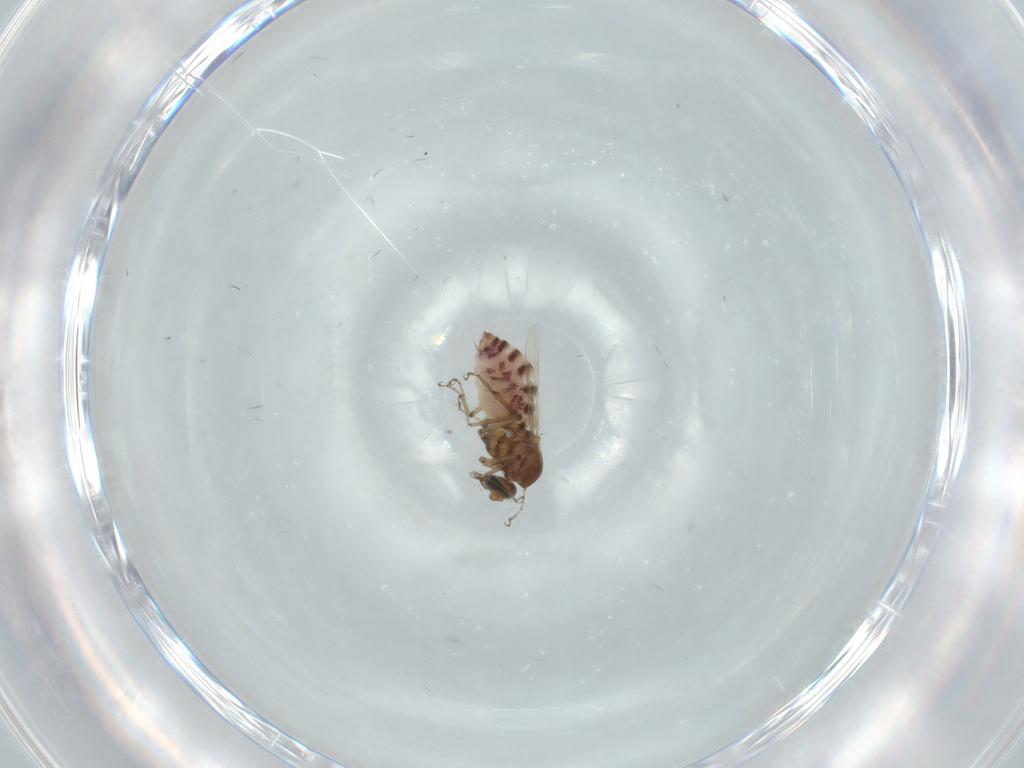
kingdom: Animalia
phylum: Arthropoda
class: Insecta
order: Diptera
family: Ceratopogonidae
